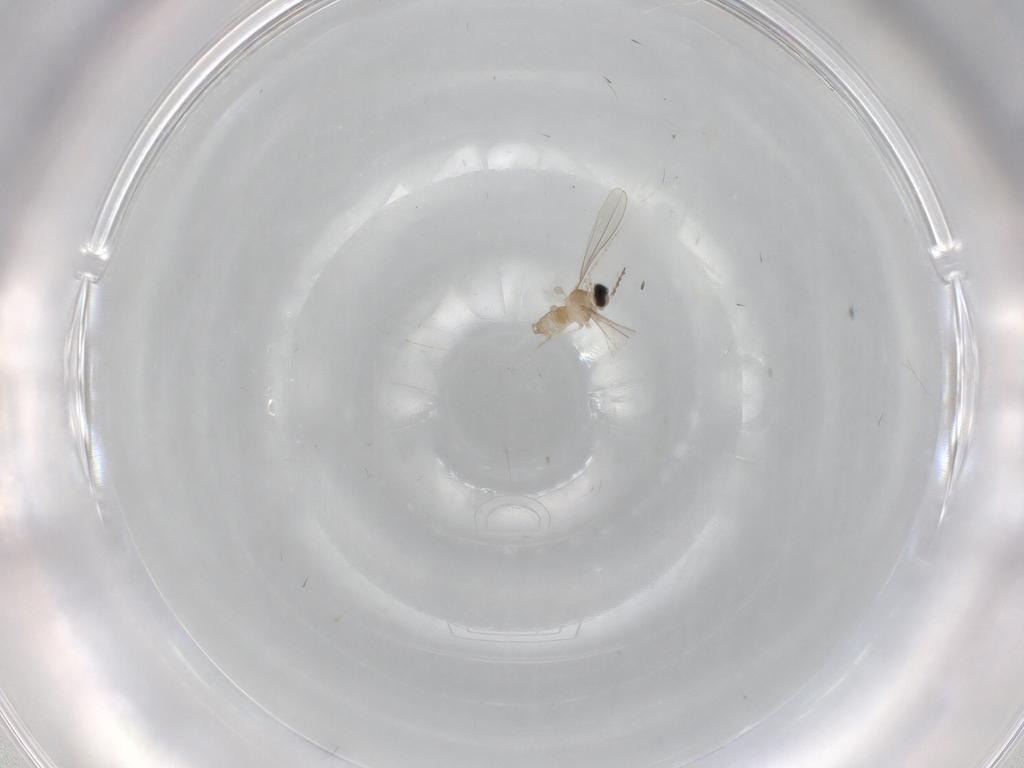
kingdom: Animalia
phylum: Arthropoda
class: Insecta
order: Diptera
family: Cecidomyiidae
